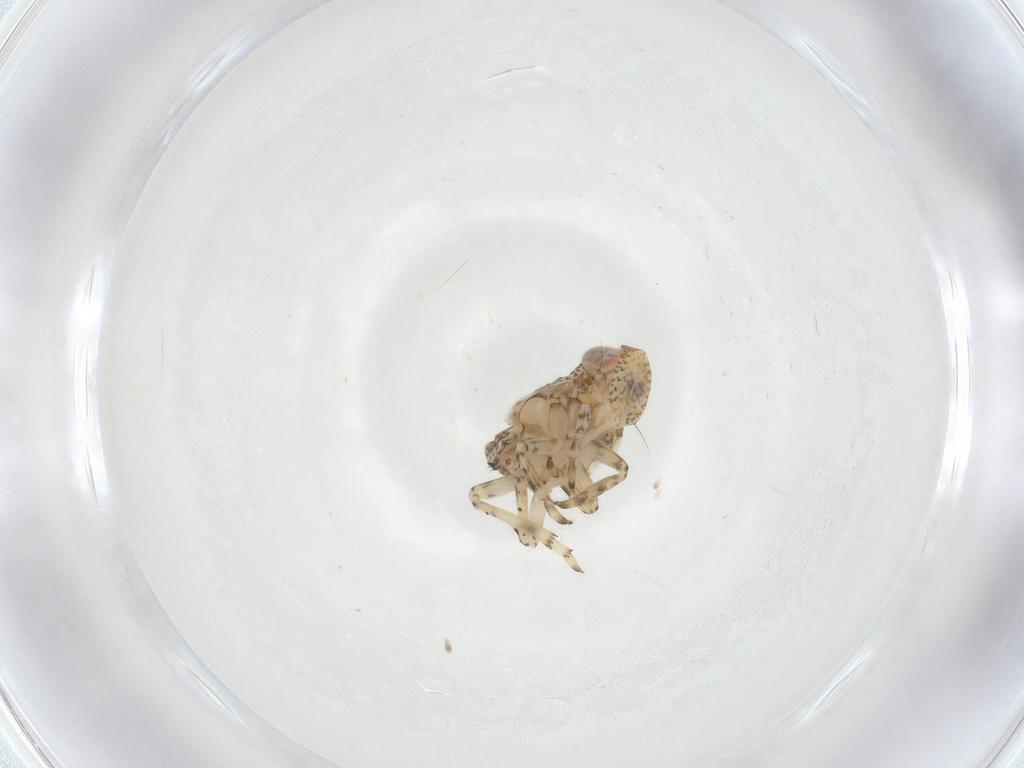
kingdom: Animalia
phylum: Arthropoda
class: Insecta
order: Hemiptera
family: Issidae
